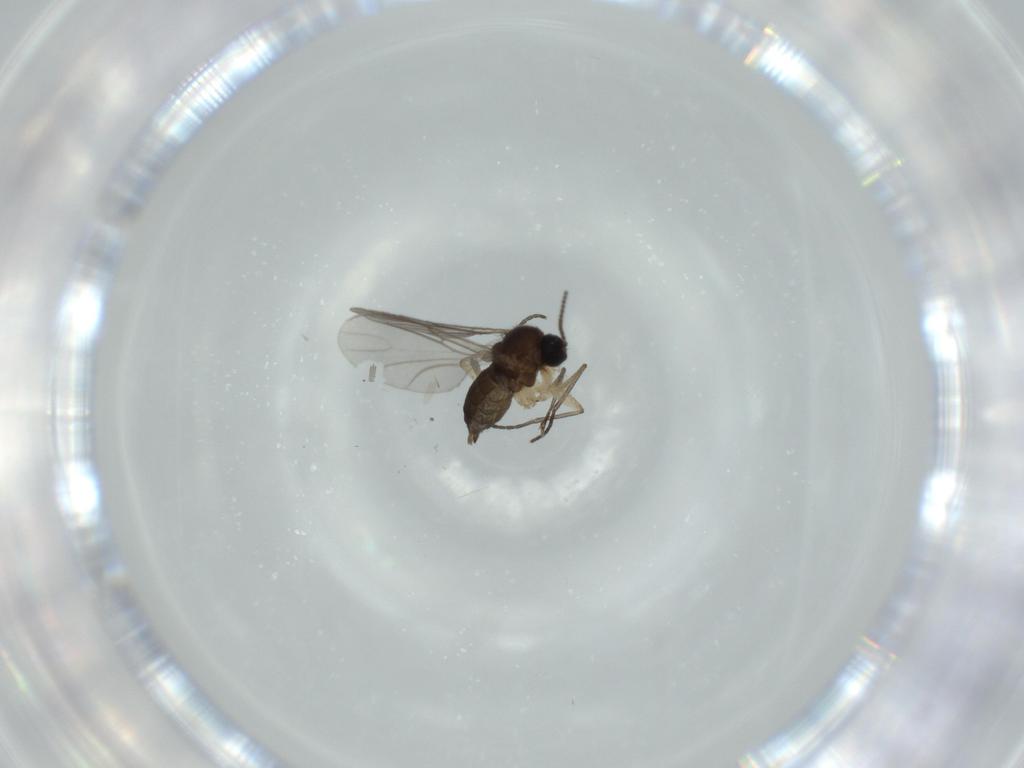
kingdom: Animalia
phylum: Arthropoda
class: Insecta
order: Diptera
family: Sciaridae
